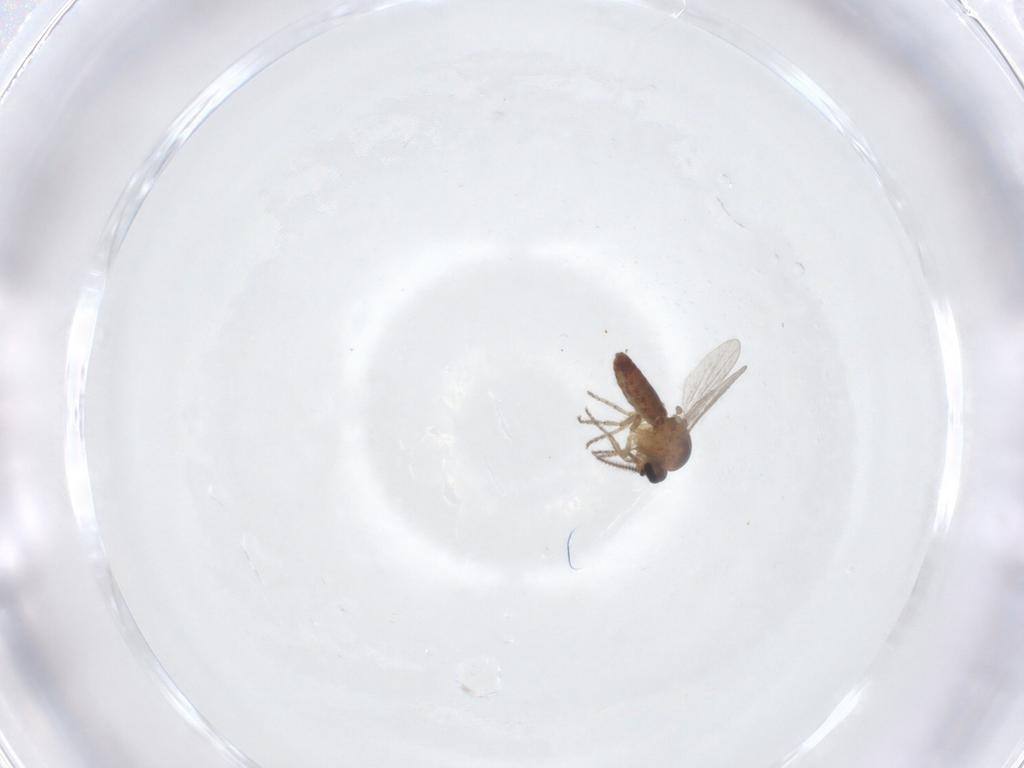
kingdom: Animalia
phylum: Arthropoda
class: Insecta
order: Diptera
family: Ceratopogonidae
